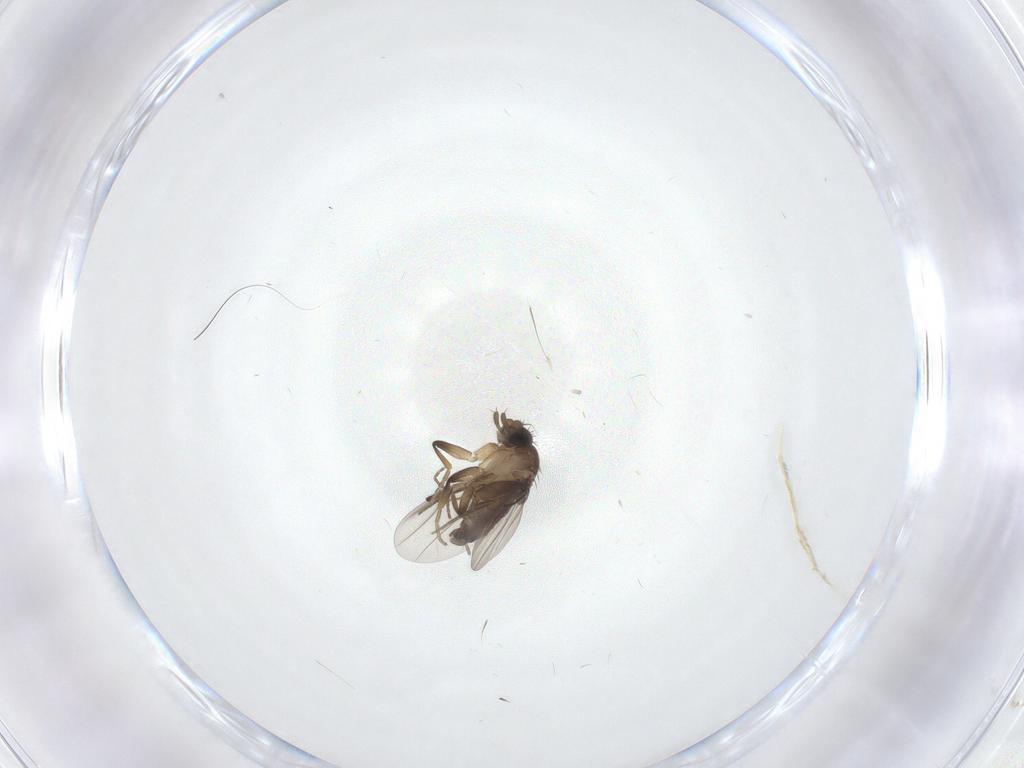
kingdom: Animalia
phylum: Arthropoda
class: Insecta
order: Diptera
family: Phoridae
